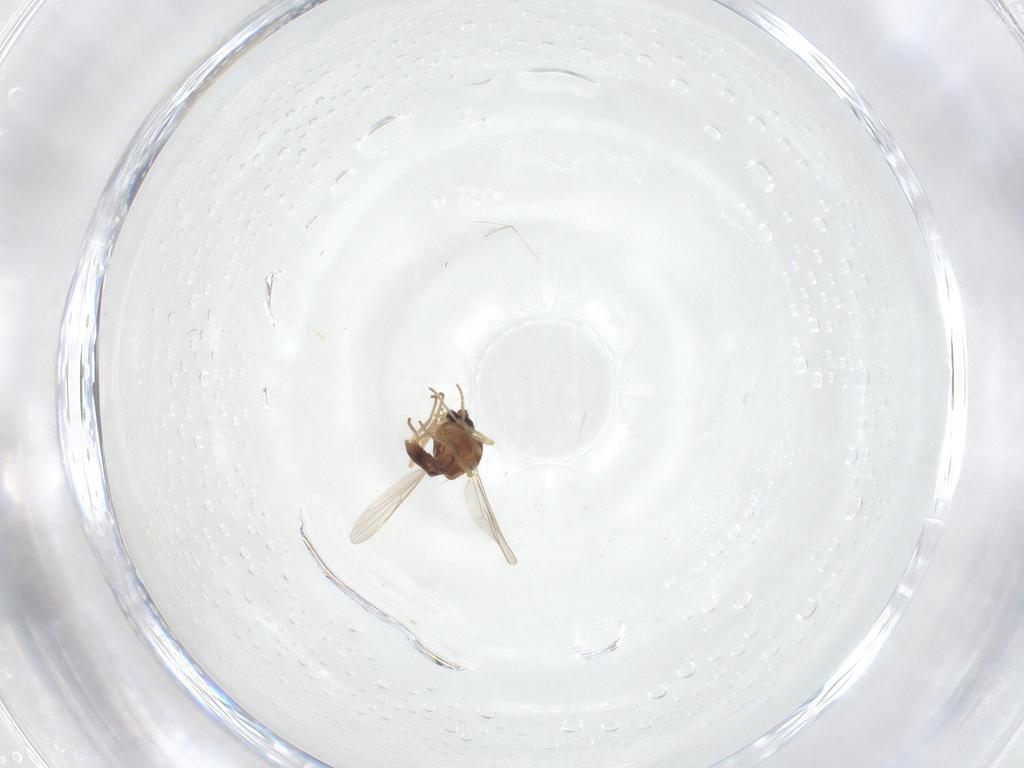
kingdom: Animalia
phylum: Arthropoda
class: Insecta
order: Diptera
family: Ceratopogonidae
